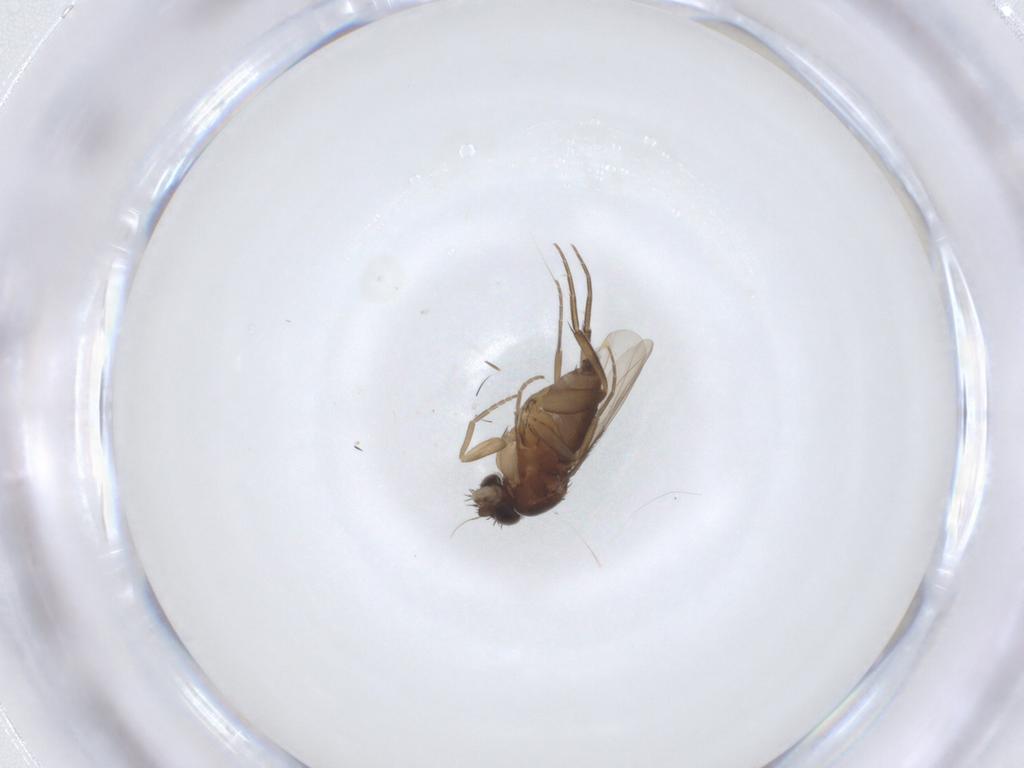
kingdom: Animalia
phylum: Arthropoda
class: Insecta
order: Diptera
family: Phoridae
